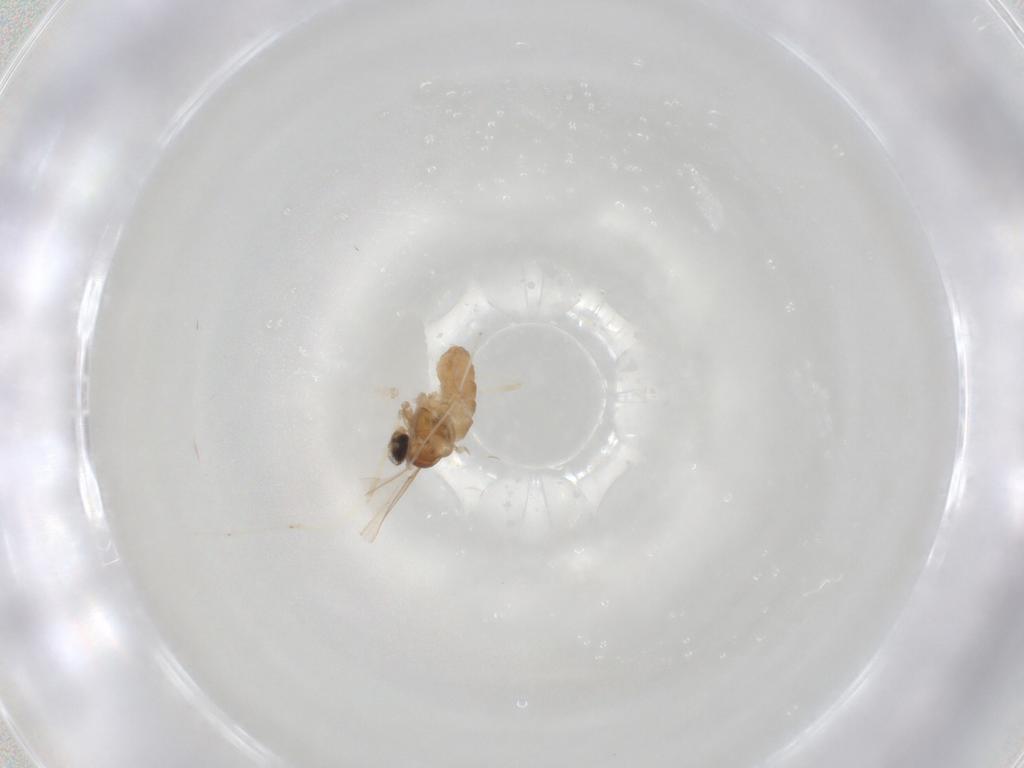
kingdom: Animalia
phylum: Arthropoda
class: Insecta
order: Diptera
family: Cecidomyiidae
